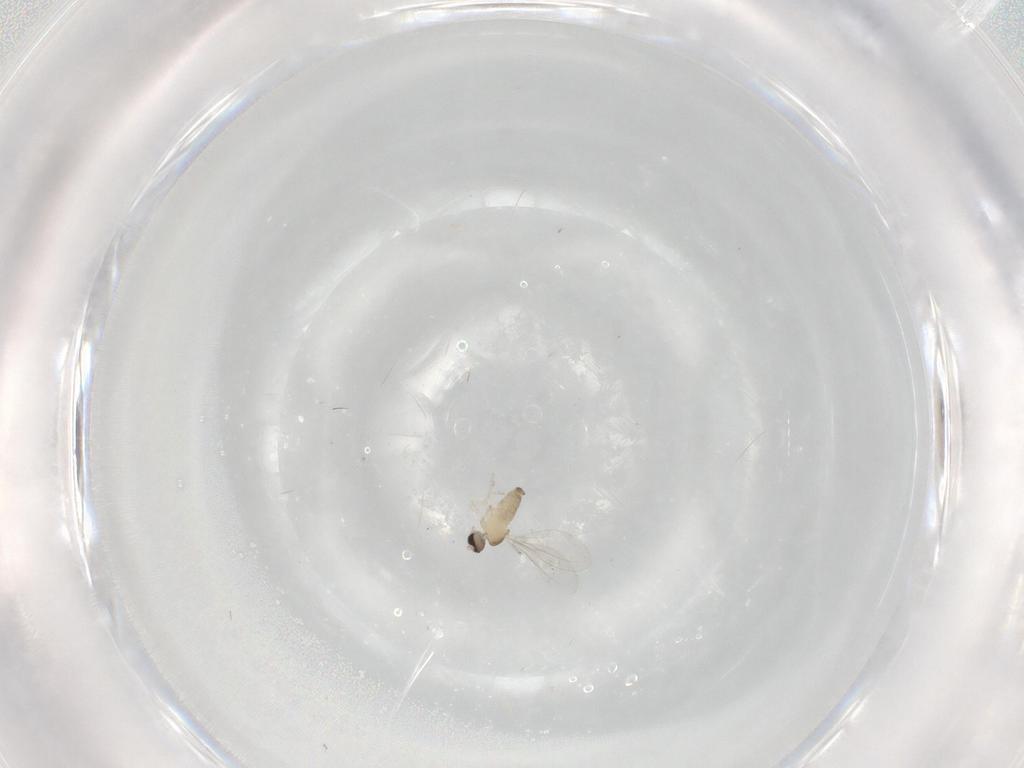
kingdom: Animalia
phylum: Arthropoda
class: Insecta
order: Diptera
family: Cecidomyiidae
